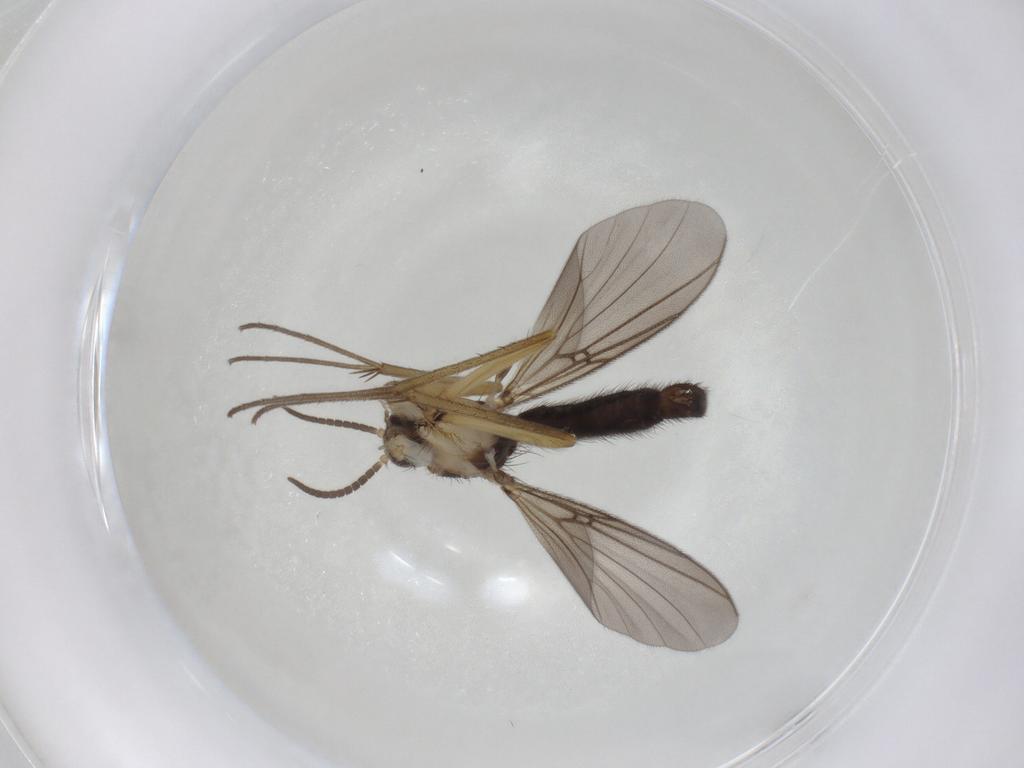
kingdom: Animalia
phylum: Arthropoda
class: Insecta
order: Diptera
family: Mycetophilidae
